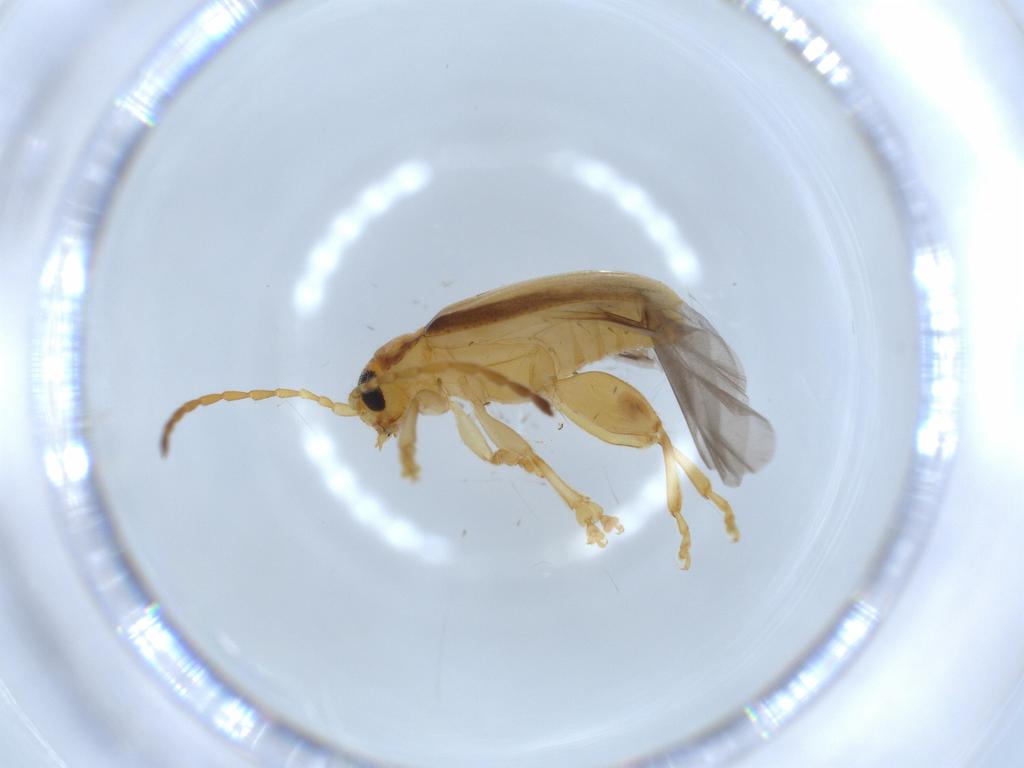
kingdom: Animalia
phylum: Arthropoda
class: Insecta
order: Coleoptera
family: Chrysomelidae
